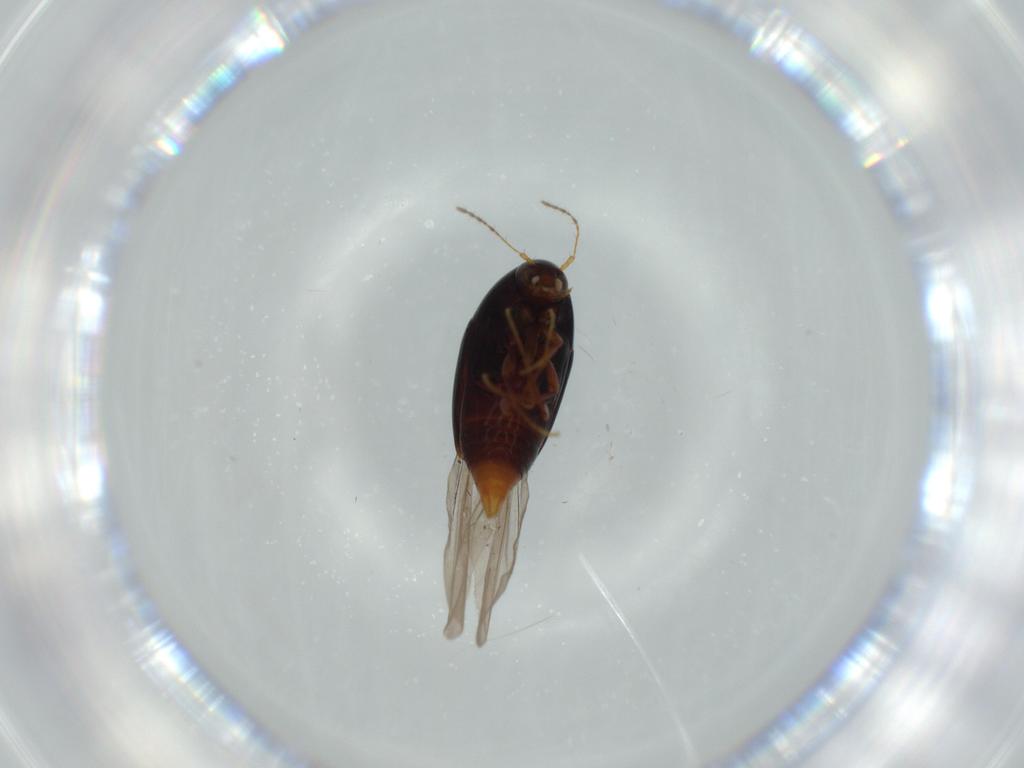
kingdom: Animalia
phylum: Arthropoda
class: Insecta
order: Coleoptera
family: Staphylinidae
